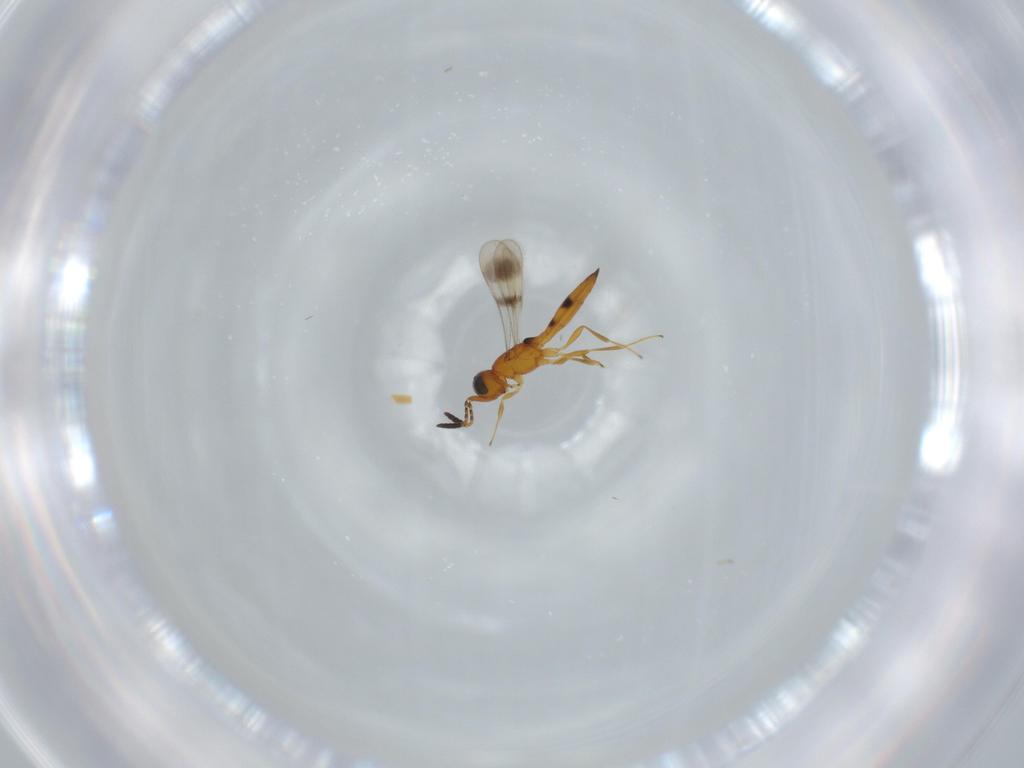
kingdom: Animalia
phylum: Arthropoda
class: Insecta
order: Hymenoptera
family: Scelionidae
